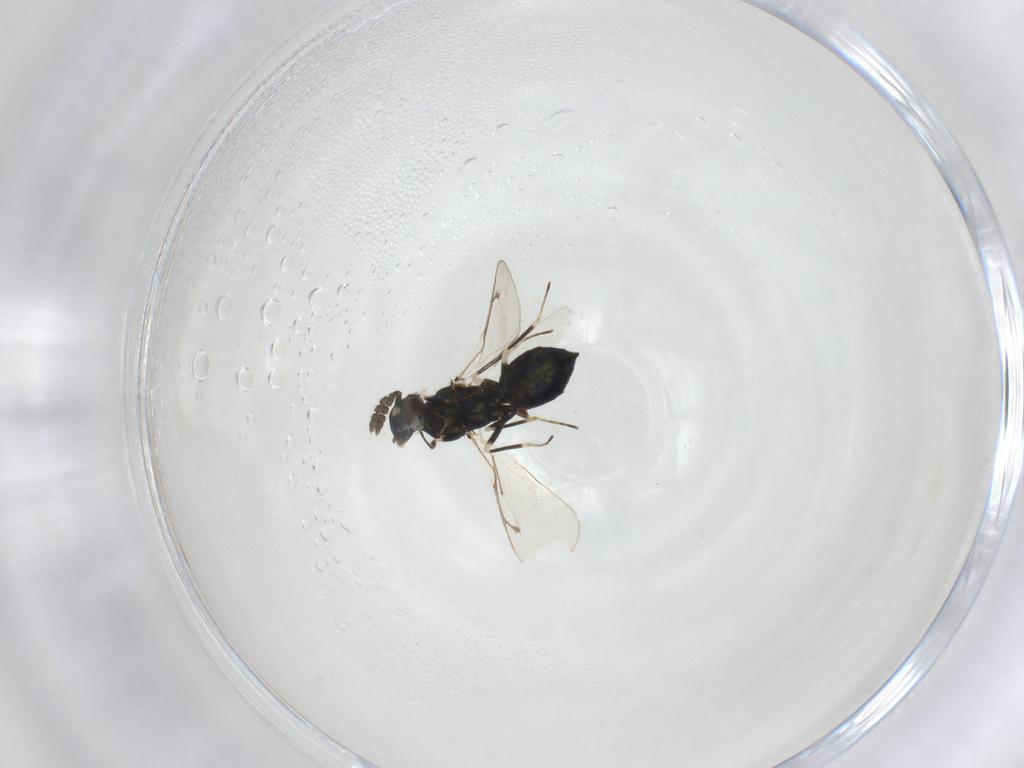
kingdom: Animalia
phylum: Arthropoda
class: Insecta
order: Hymenoptera
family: Eulophidae
